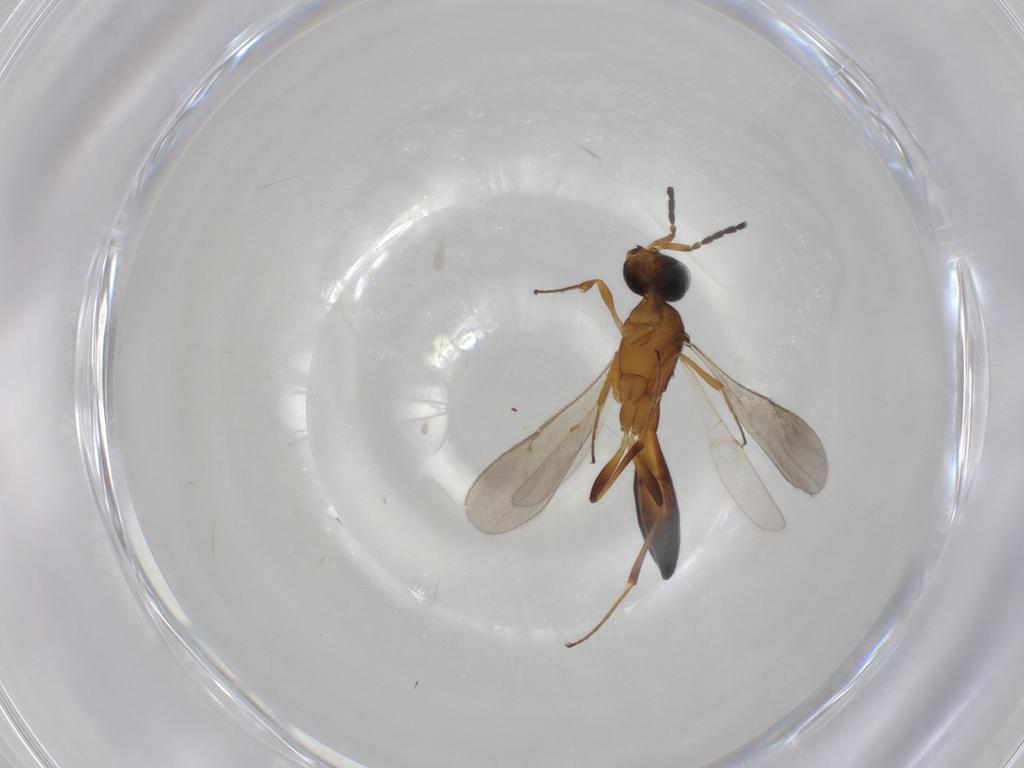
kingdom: Animalia
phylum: Arthropoda
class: Insecta
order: Hymenoptera
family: Scelionidae
